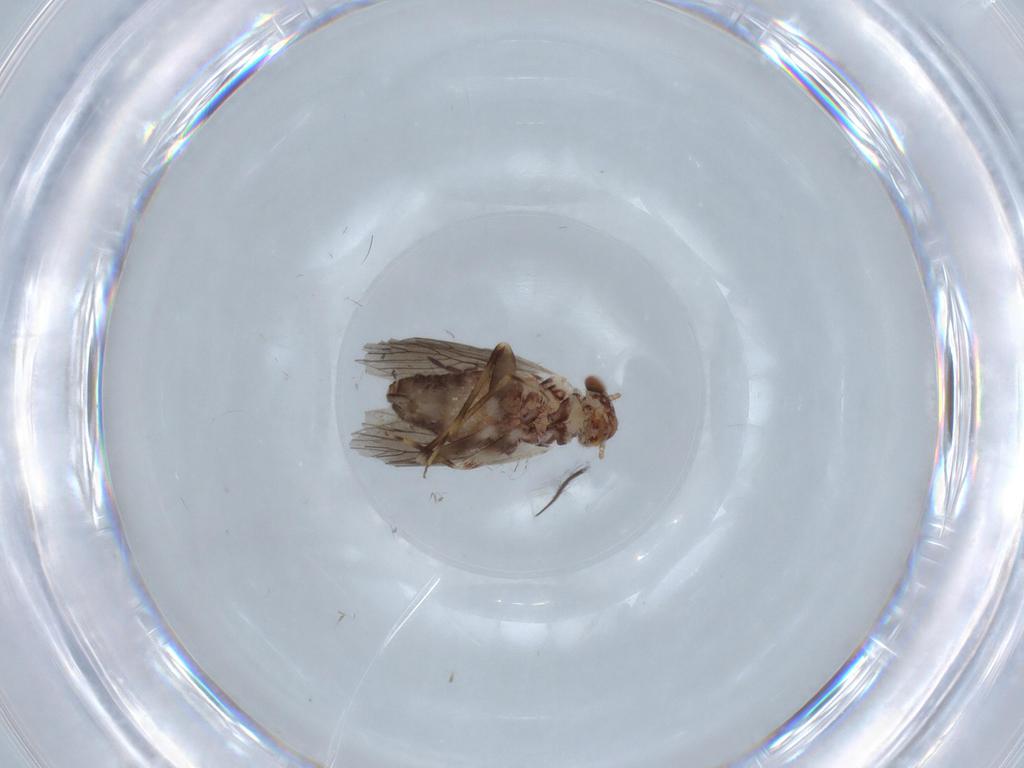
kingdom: Animalia
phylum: Arthropoda
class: Insecta
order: Psocodea
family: Lepidopsocidae
